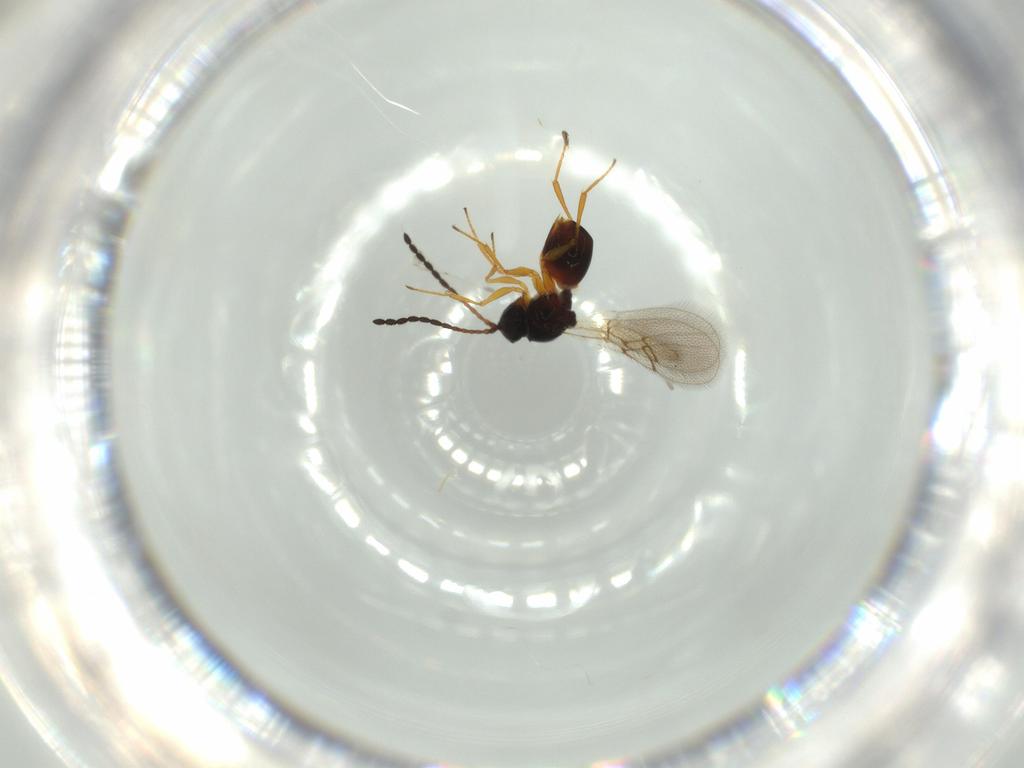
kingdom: Animalia
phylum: Arthropoda
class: Insecta
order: Hymenoptera
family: Figitidae
